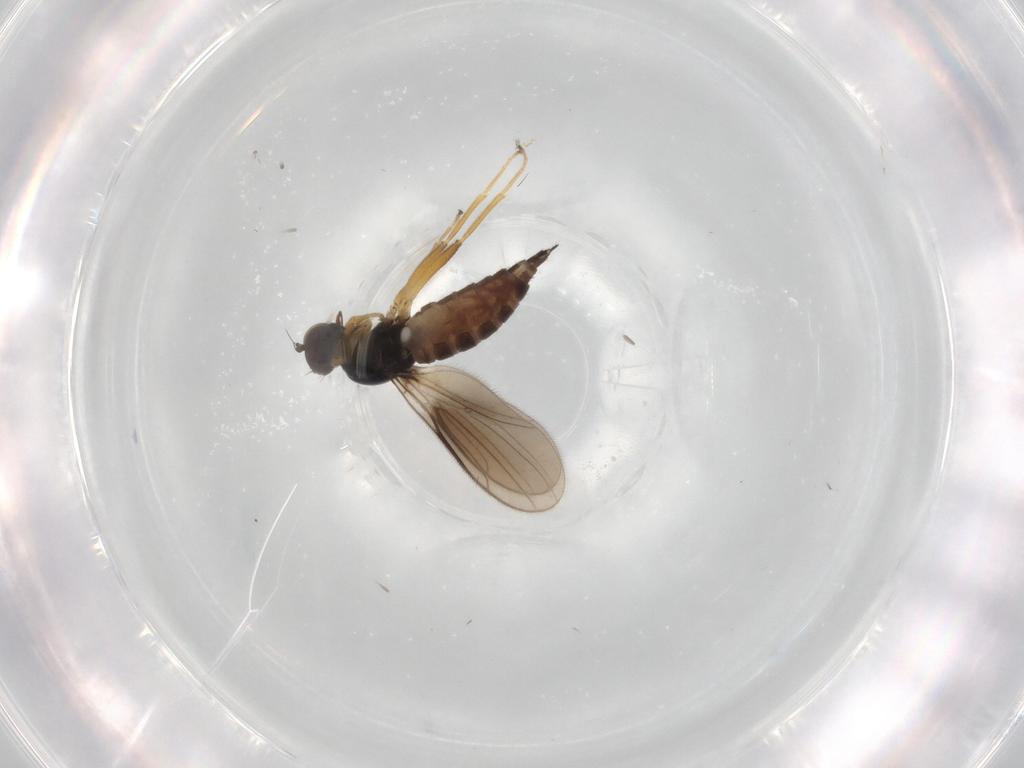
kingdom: Animalia
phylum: Arthropoda
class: Insecta
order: Diptera
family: Hybotidae
